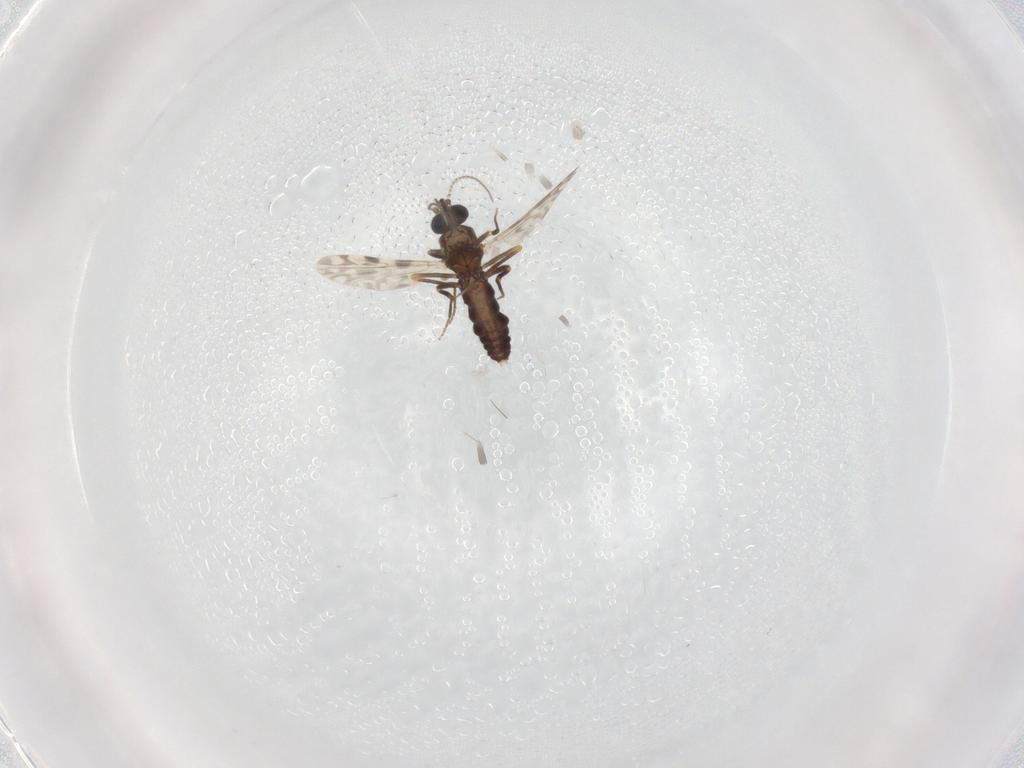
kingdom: Animalia
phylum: Arthropoda
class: Insecta
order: Diptera
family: Ceratopogonidae
